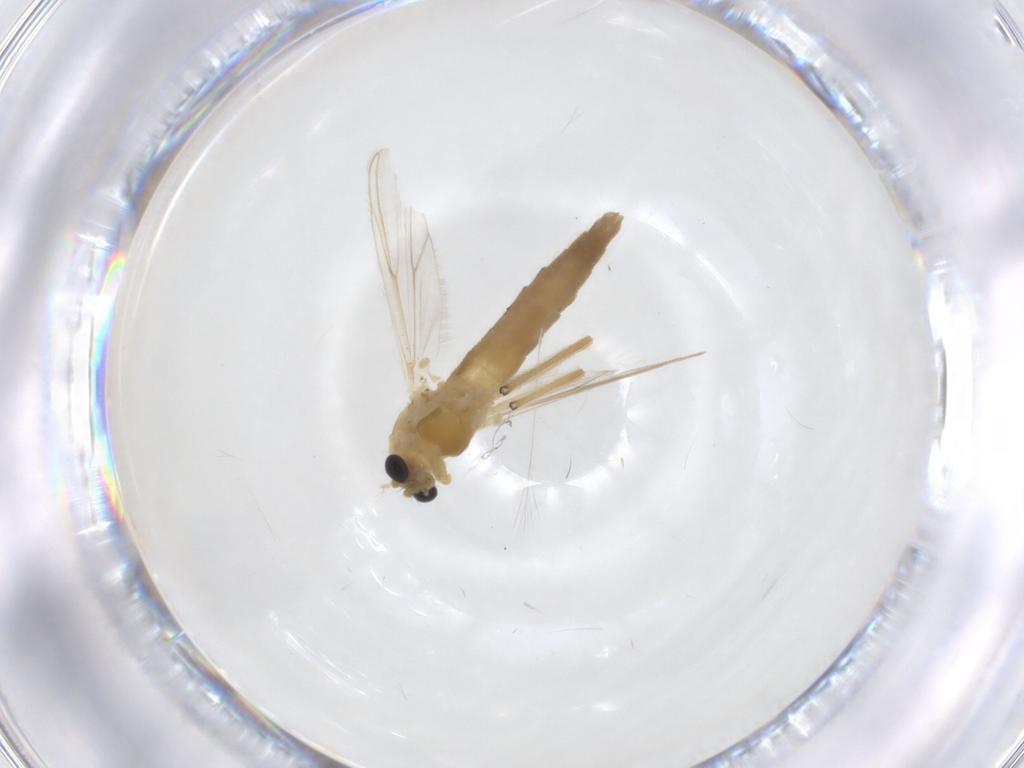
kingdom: Animalia
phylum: Arthropoda
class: Insecta
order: Diptera
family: Chironomidae
